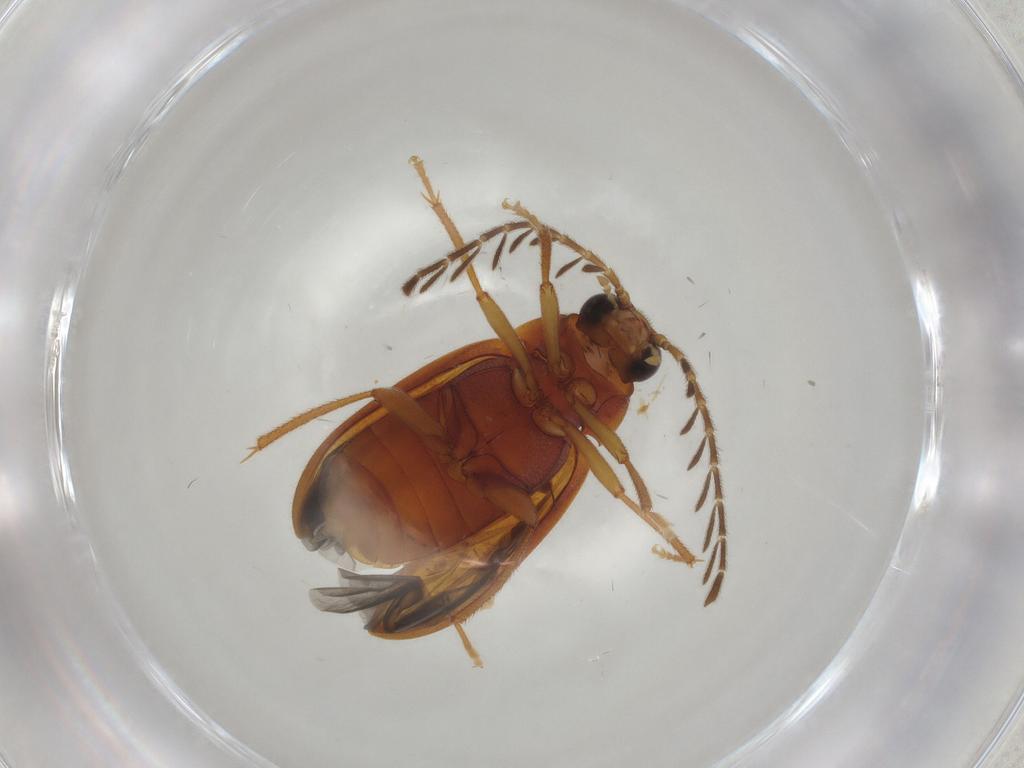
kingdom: Animalia
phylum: Arthropoda
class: Insecta
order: Coleoptera
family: Ptilodactylidae
